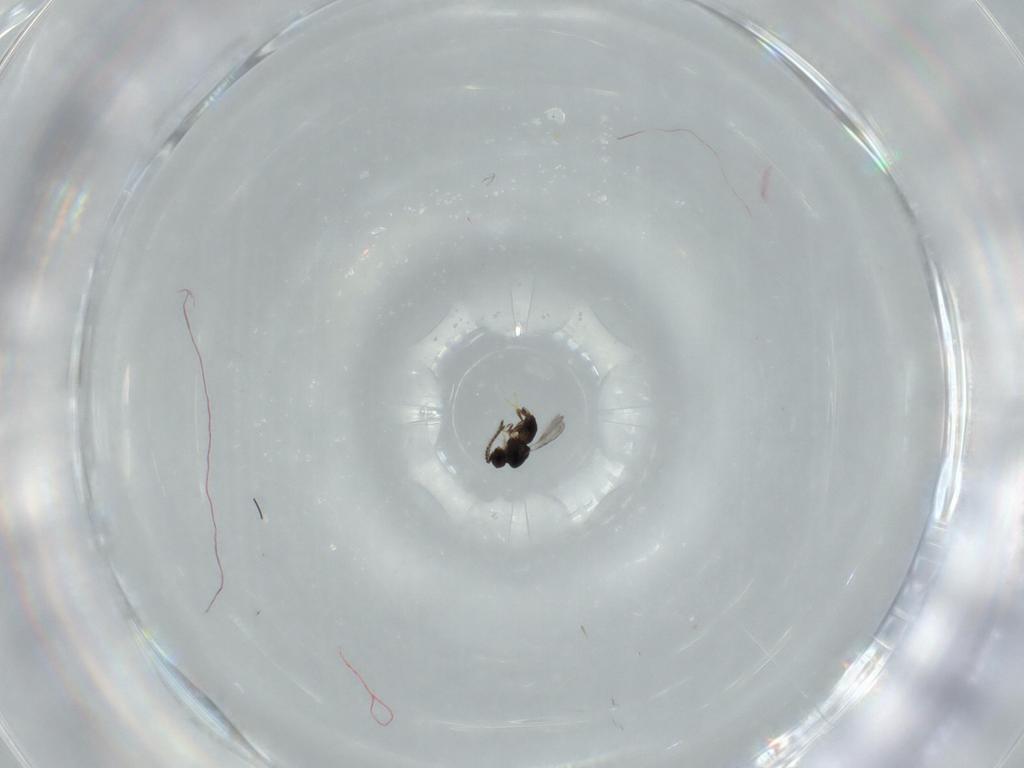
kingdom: Animalia
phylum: Arthropoda
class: Insecta
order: Hymenoptera
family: Ceraphronidae
